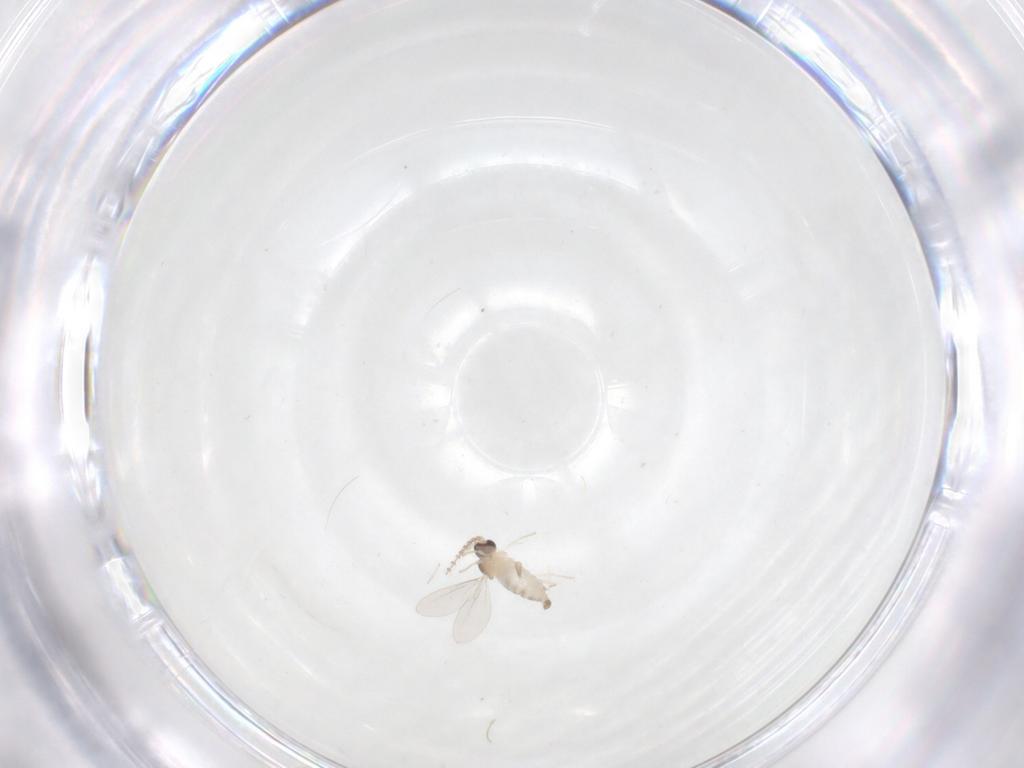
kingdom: Animalia
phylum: Arthropoda
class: Insecta
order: Diptera
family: Cecidomyiidae
